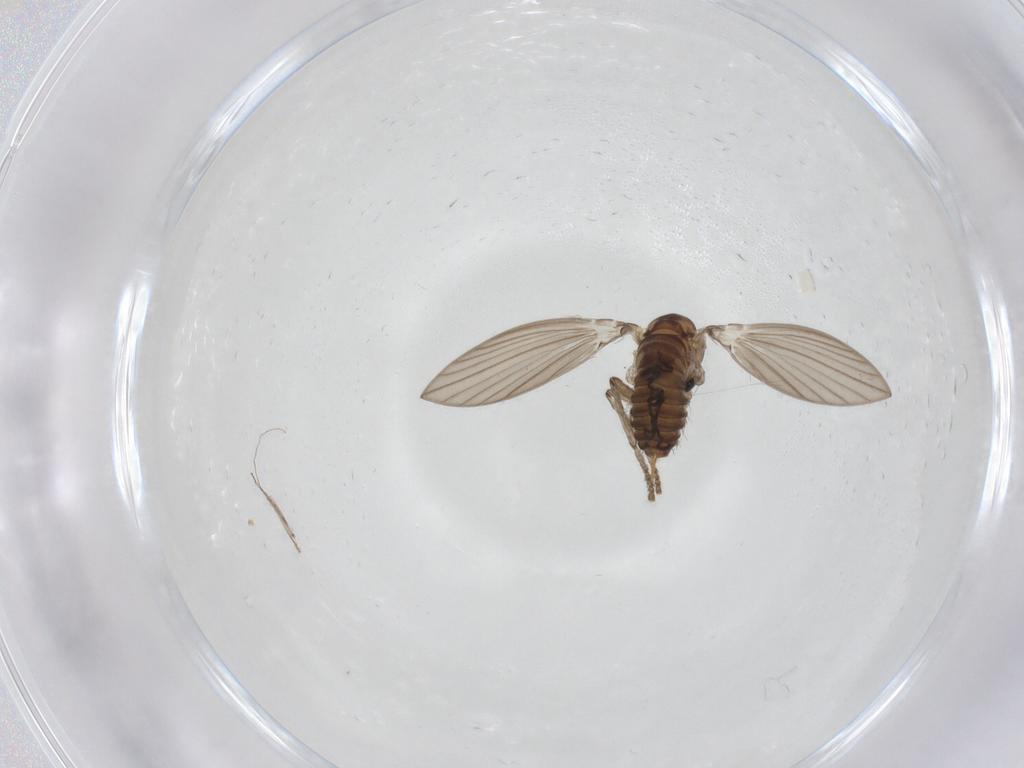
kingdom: Animalia
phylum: Arthropoda
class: Insecta
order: Diptera
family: Psychodidae
